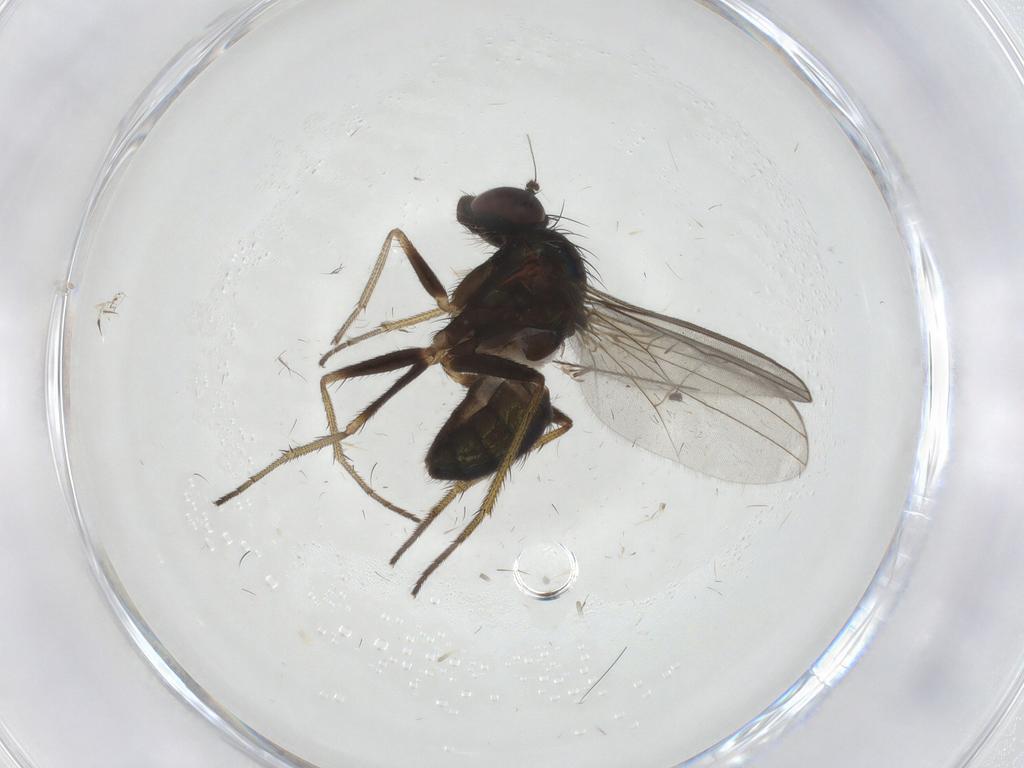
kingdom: Animalia
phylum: Arthropoda
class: Insecta
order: Diptera
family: Dolichopodidae
